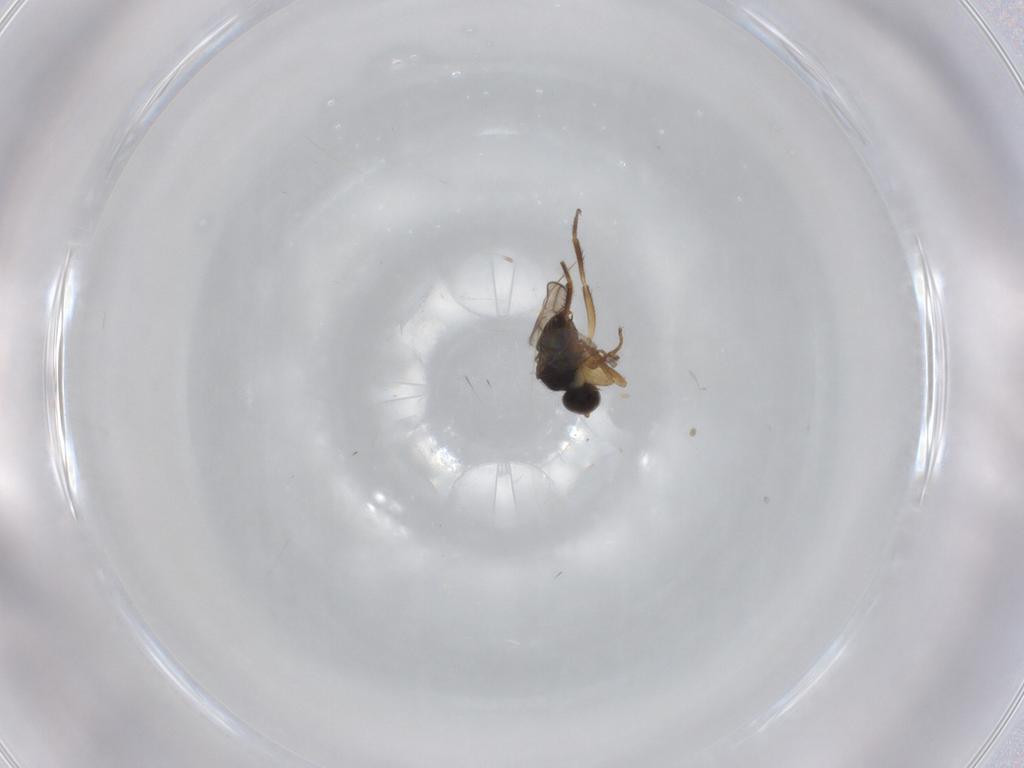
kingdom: Animalia
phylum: Arthropoda
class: Insecta
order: Diptera
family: Hybotidae
